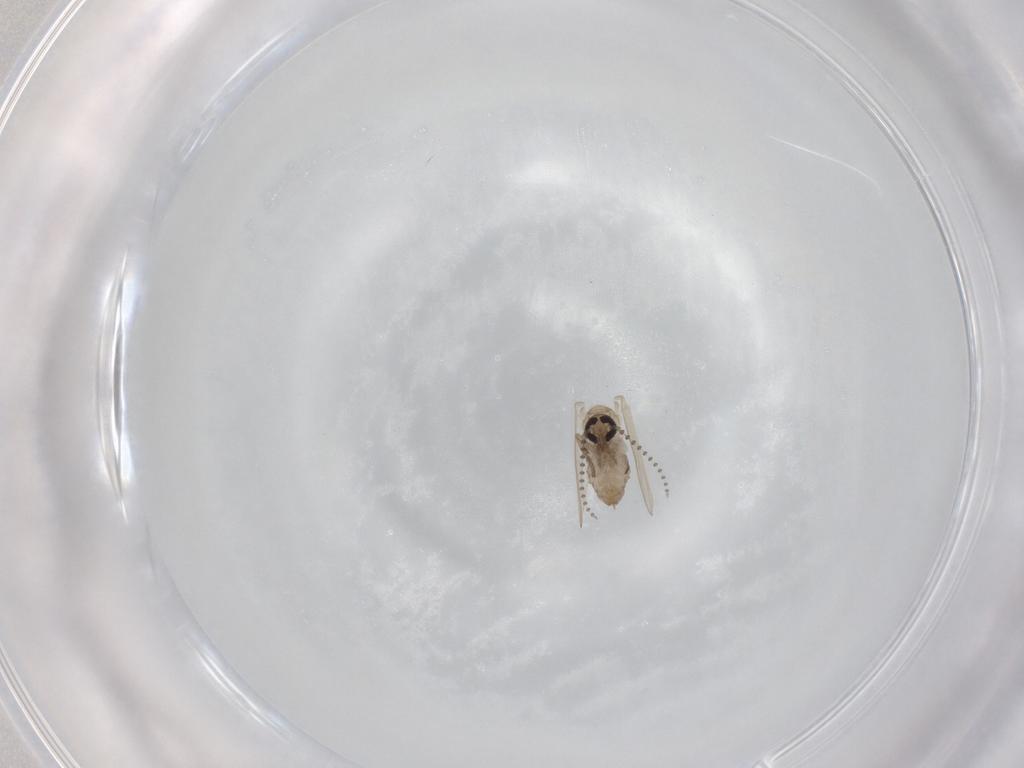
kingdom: Animalia
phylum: Arthropoda
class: Insecta
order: Diptera
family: Psychodidae
